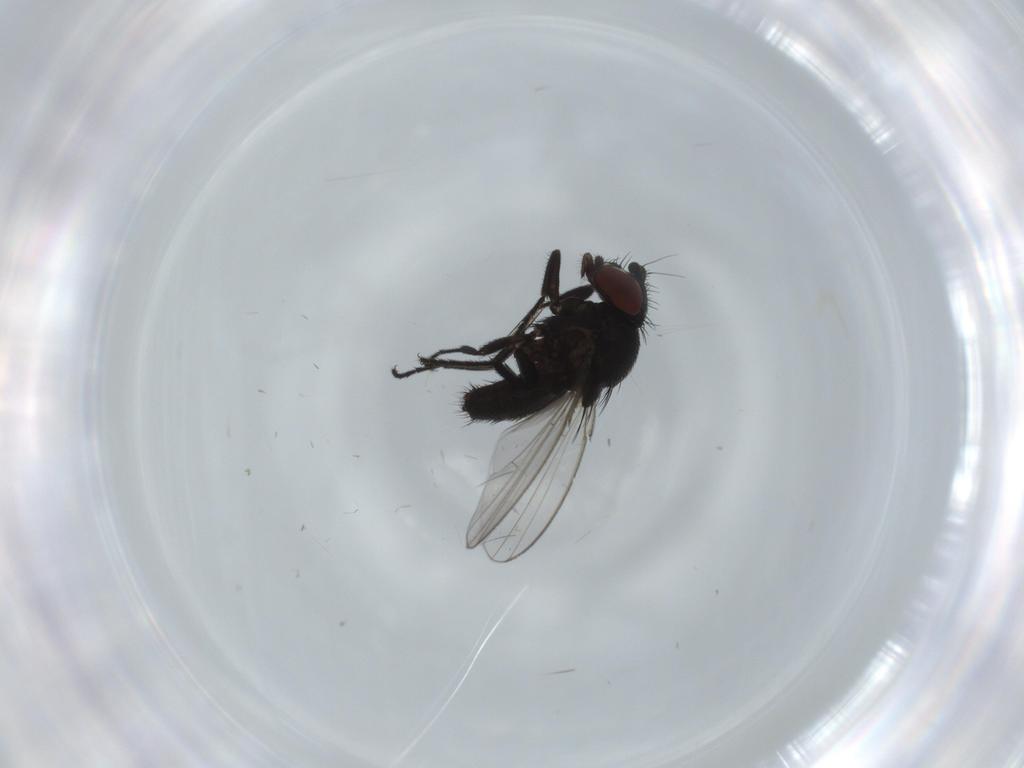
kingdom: Animalia
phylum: Arthropoda
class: Insecta
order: Diptera
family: Milichiidae
